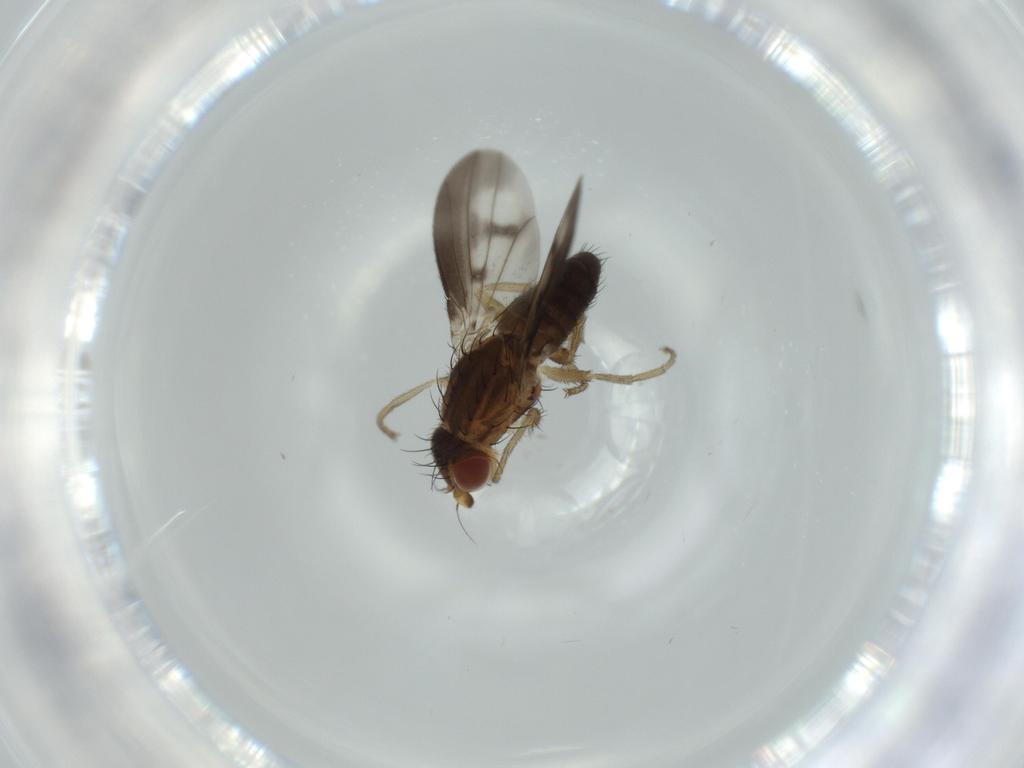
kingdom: Animalia
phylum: Arthropoda
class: Insecta
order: Diptera
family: Heleomyzidae
